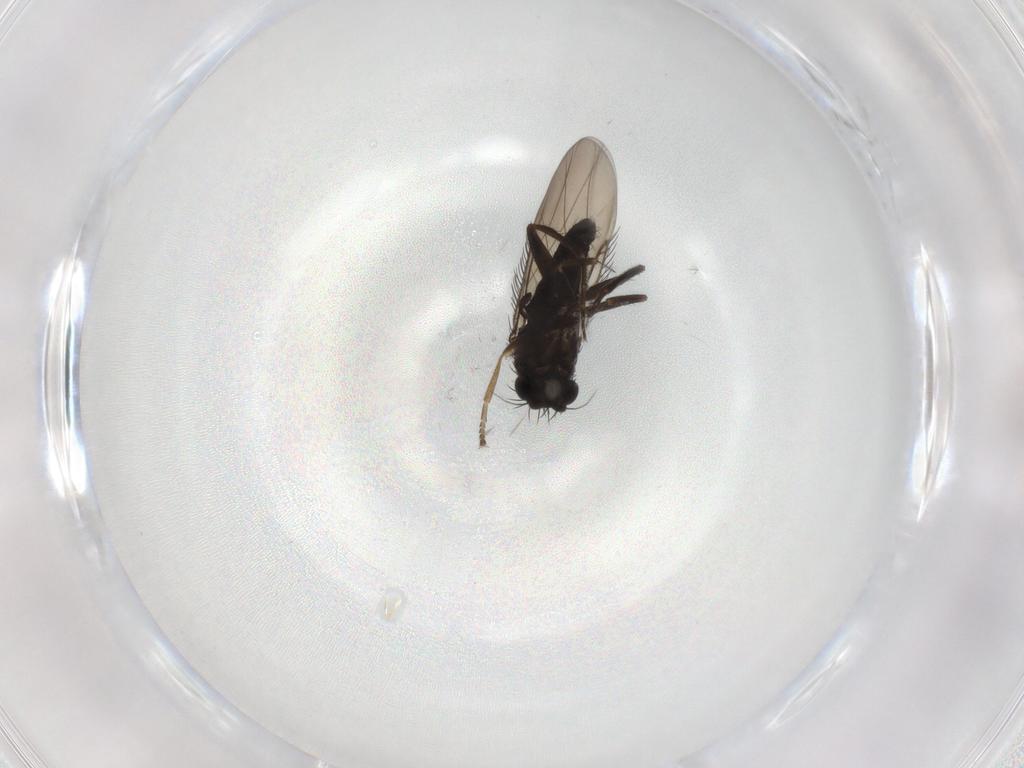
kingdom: Animalia
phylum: Arthropoda
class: Insecta
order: Diptera
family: Phoridae
